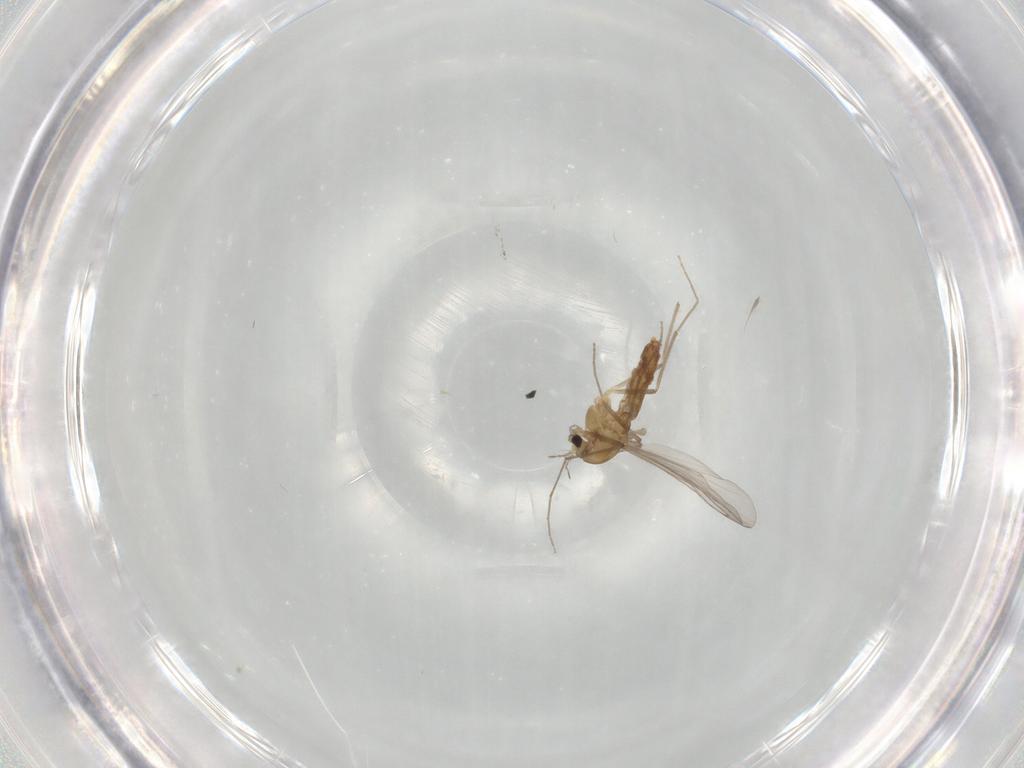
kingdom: Animalia
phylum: Arthropoda
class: Insecta
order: Diptera
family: Chironomidae
